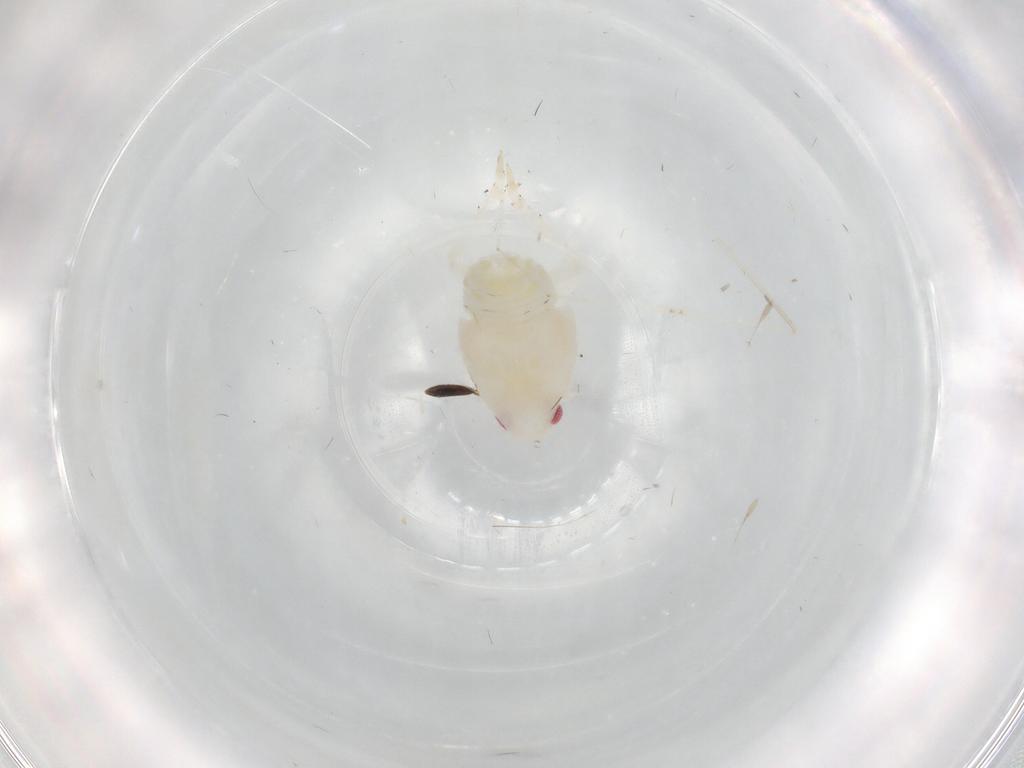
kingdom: Animalia
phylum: Arthropoda
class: Insecta
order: Hemiptera
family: Flatidae
